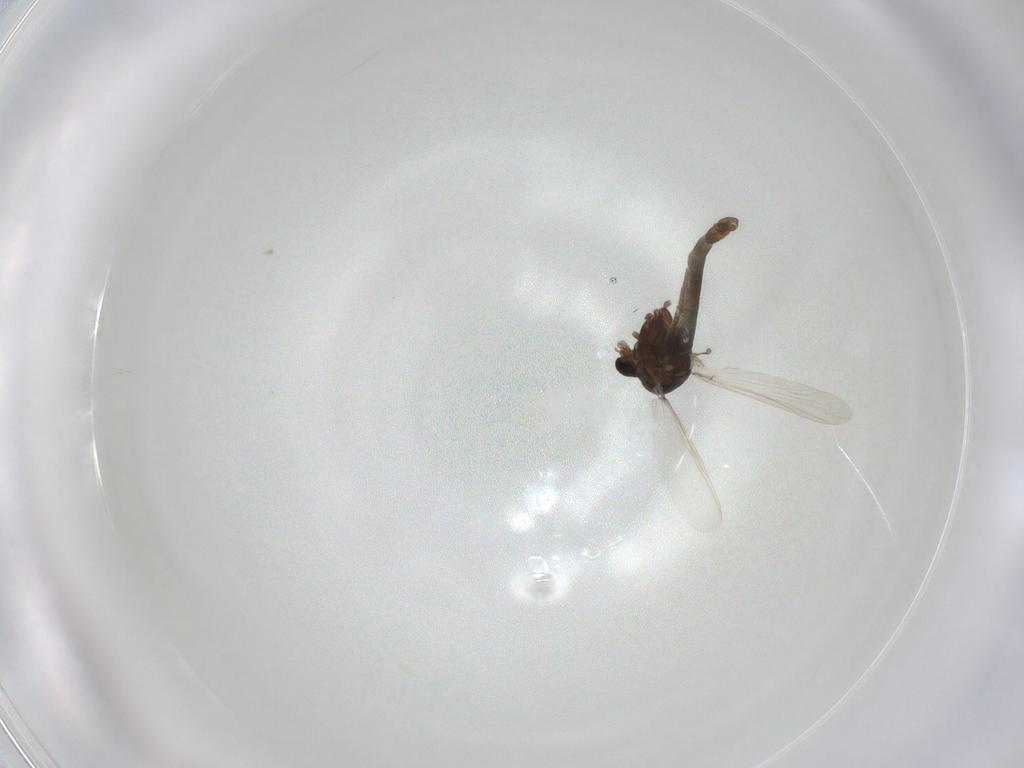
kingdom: Animalia
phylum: Arthropoda
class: Insecta
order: Diptera
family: Chironomidae
